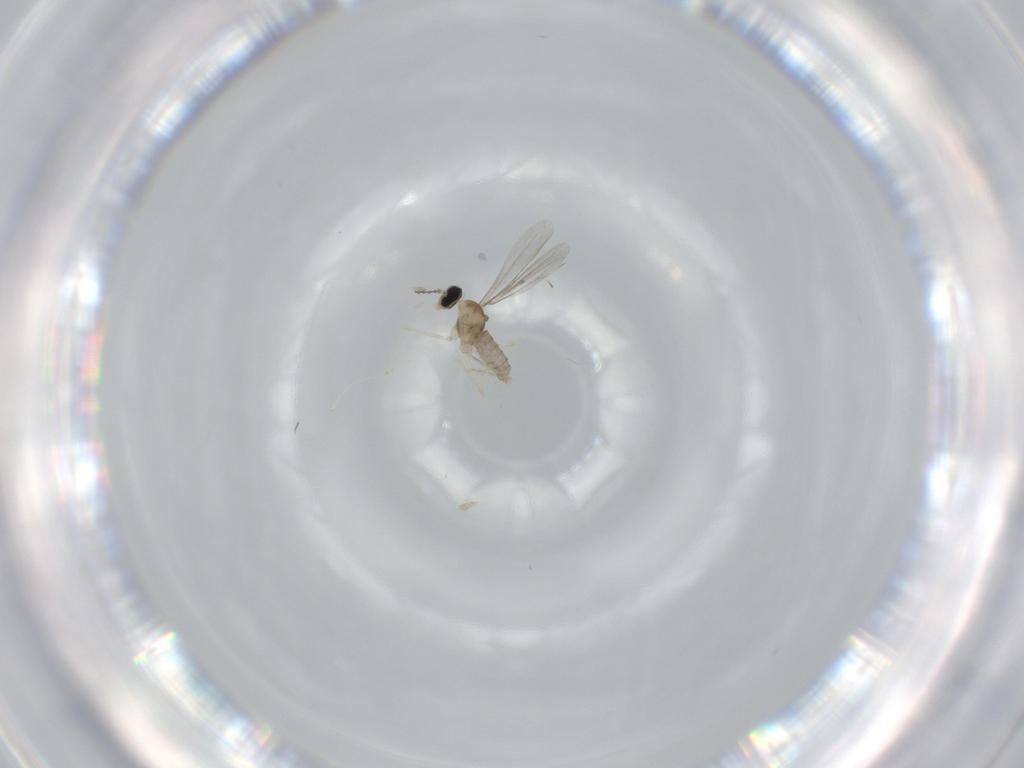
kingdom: Animalia
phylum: Arthropoda
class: Insecta
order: Diptera
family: Cecidomyiidae
